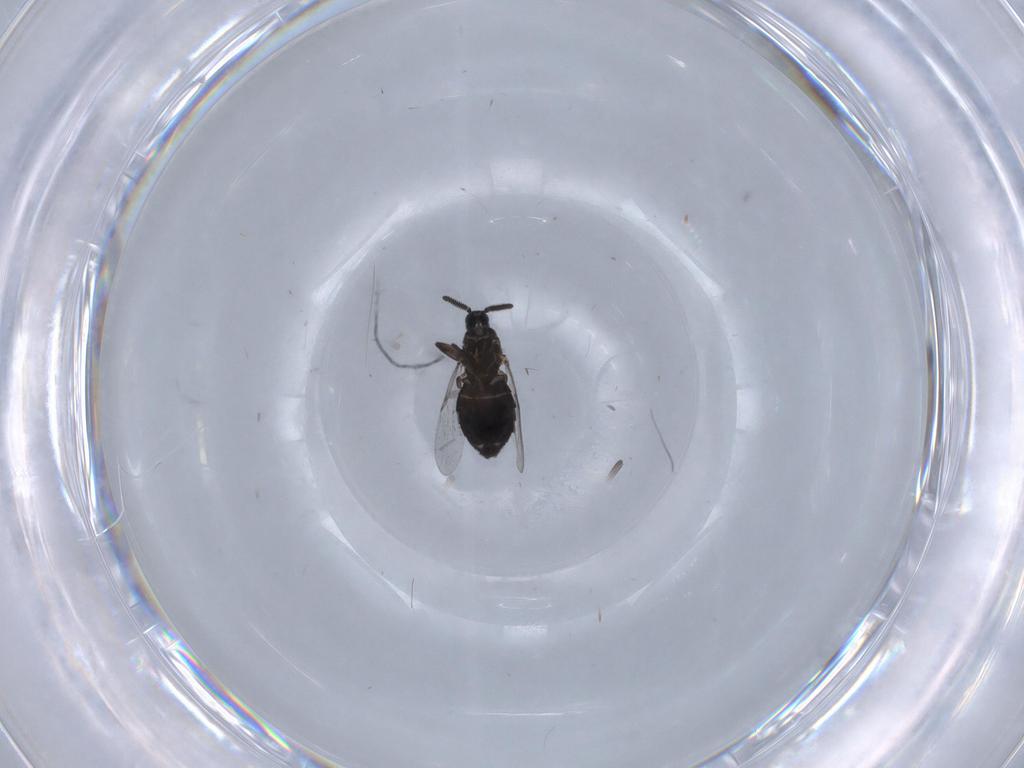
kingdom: Animalia
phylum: Arthropoda
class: Insecta
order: Diptera
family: Calliphoridae
